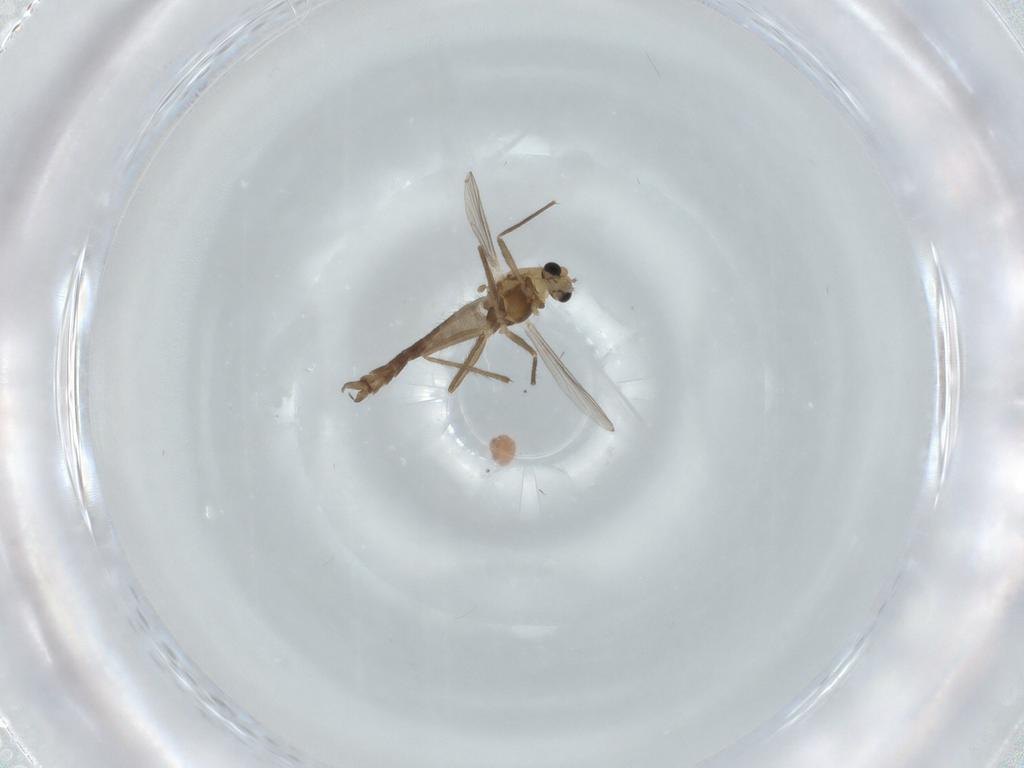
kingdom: Animalia
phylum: Arthropoda
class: Insecta
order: Diptera
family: Chironomidae
